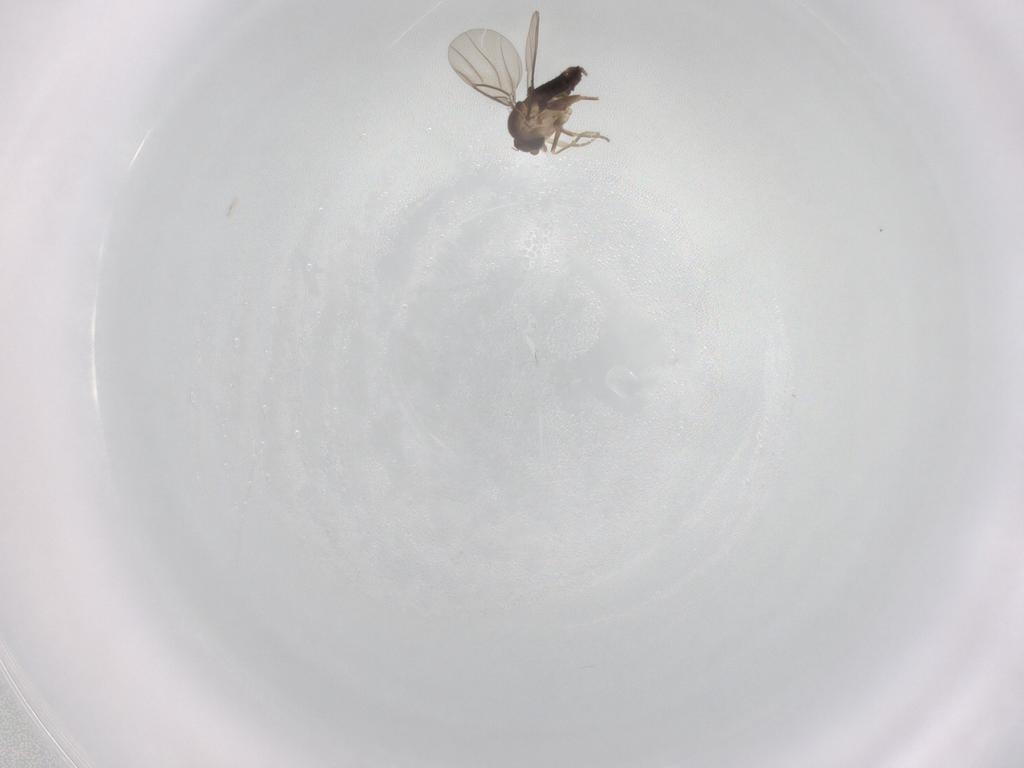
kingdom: Animalia
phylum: Arthropoda
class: Insecta
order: Diptera
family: Phoridae
